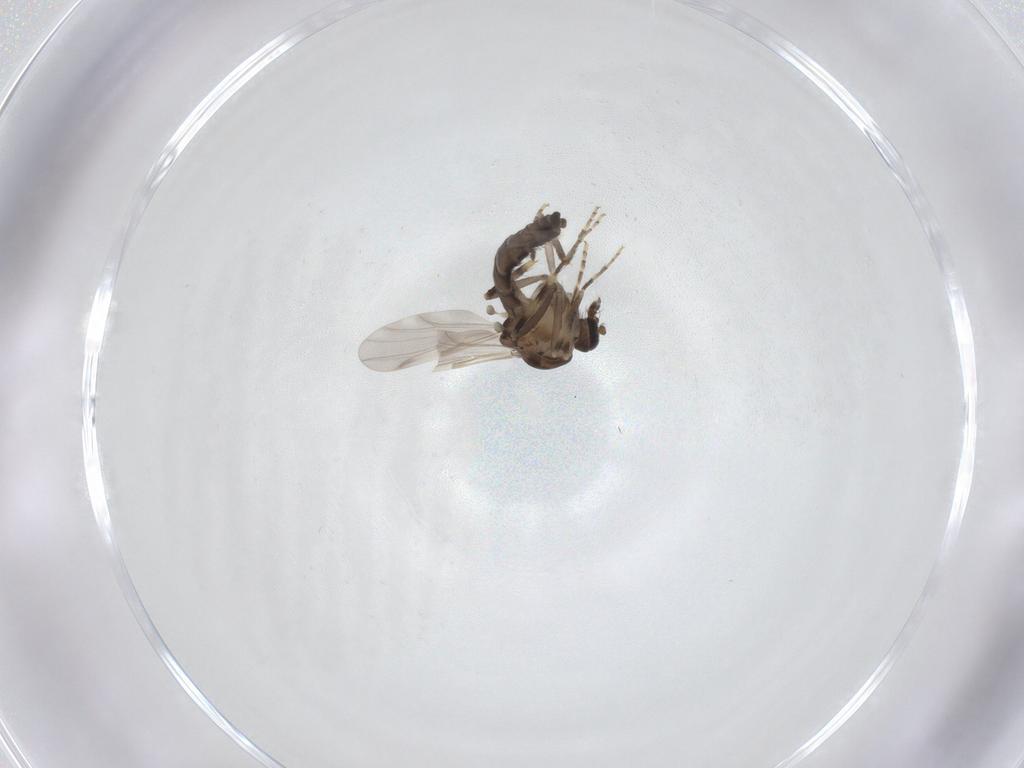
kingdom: Animalia
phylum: Arthropoda
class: Insecta
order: Diptera
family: Ceratopogonidae
